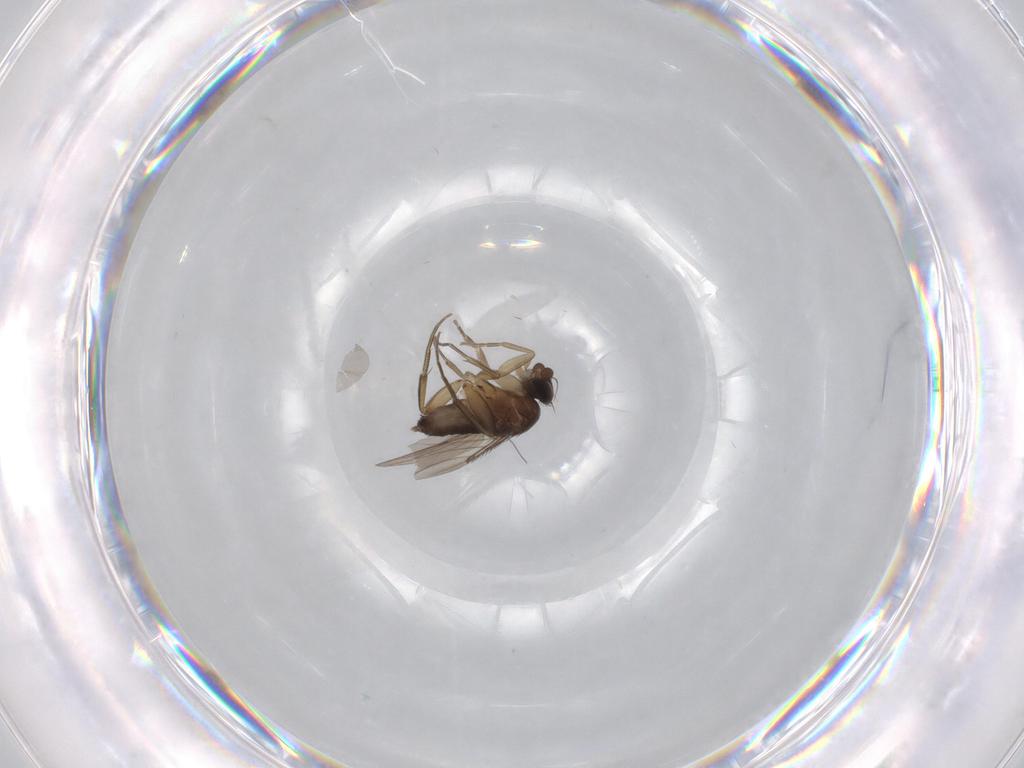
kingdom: Animalia
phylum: Arthropoda
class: Insecta
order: Diptera
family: Phoridae
